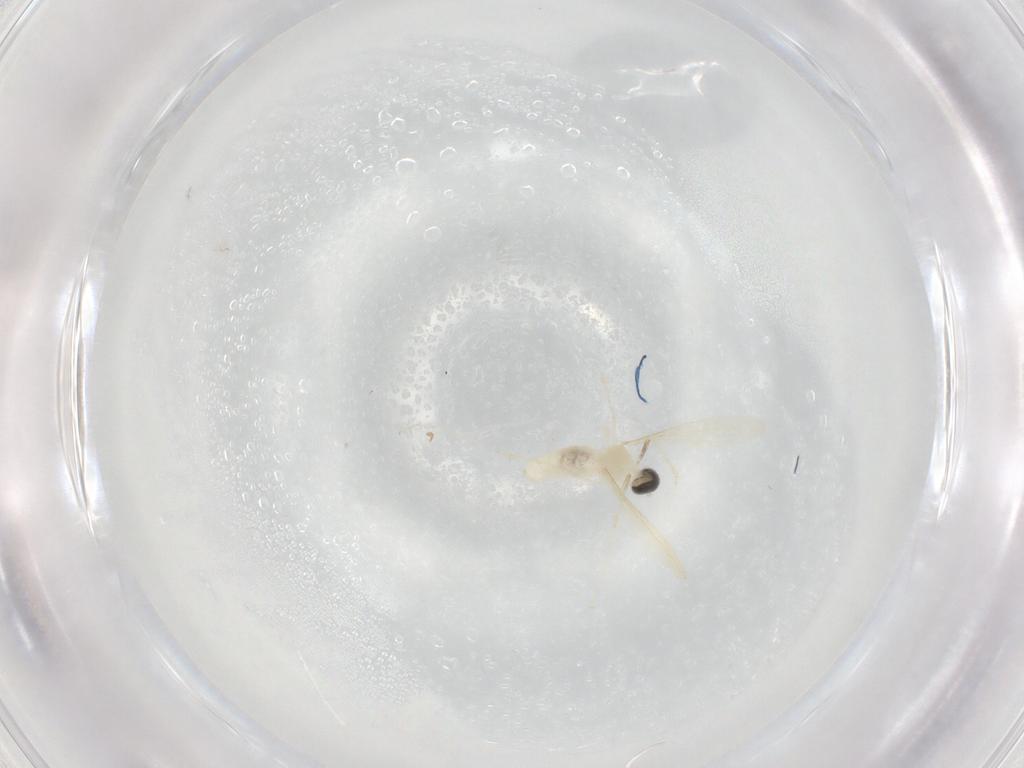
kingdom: Animalia
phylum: Arthropoda
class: Insecta
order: Diptera
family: Cecidomyiidae
